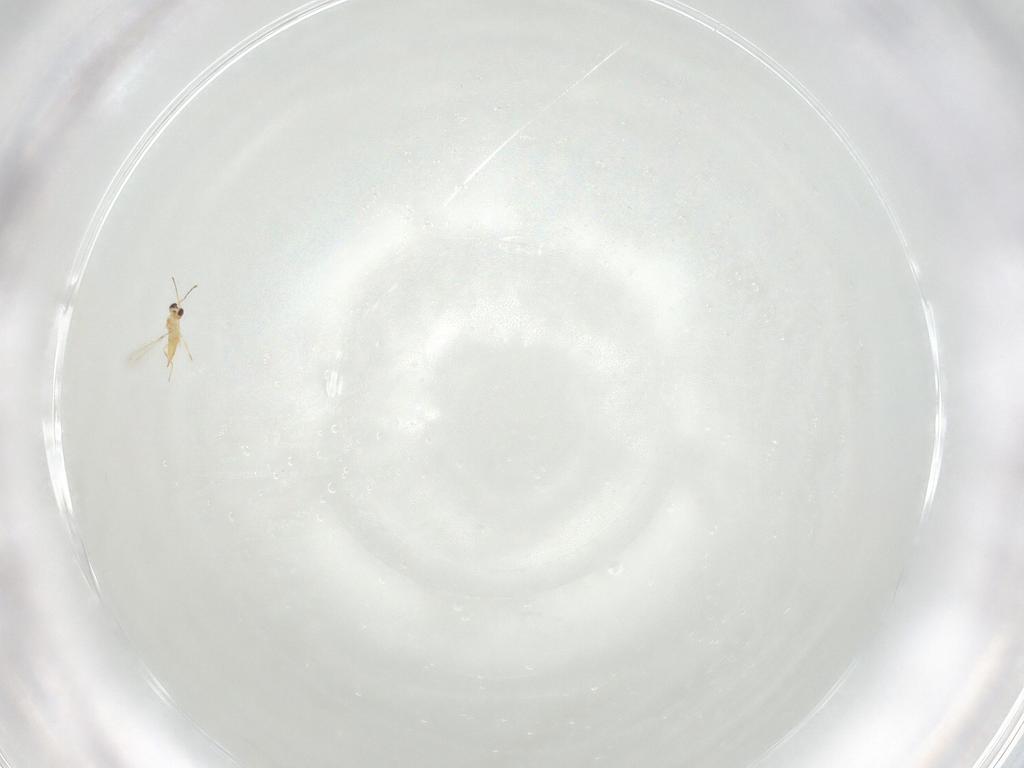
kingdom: Animalia
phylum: Arthropoda
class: Insecta
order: Hymenoptera
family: Mymaridae
